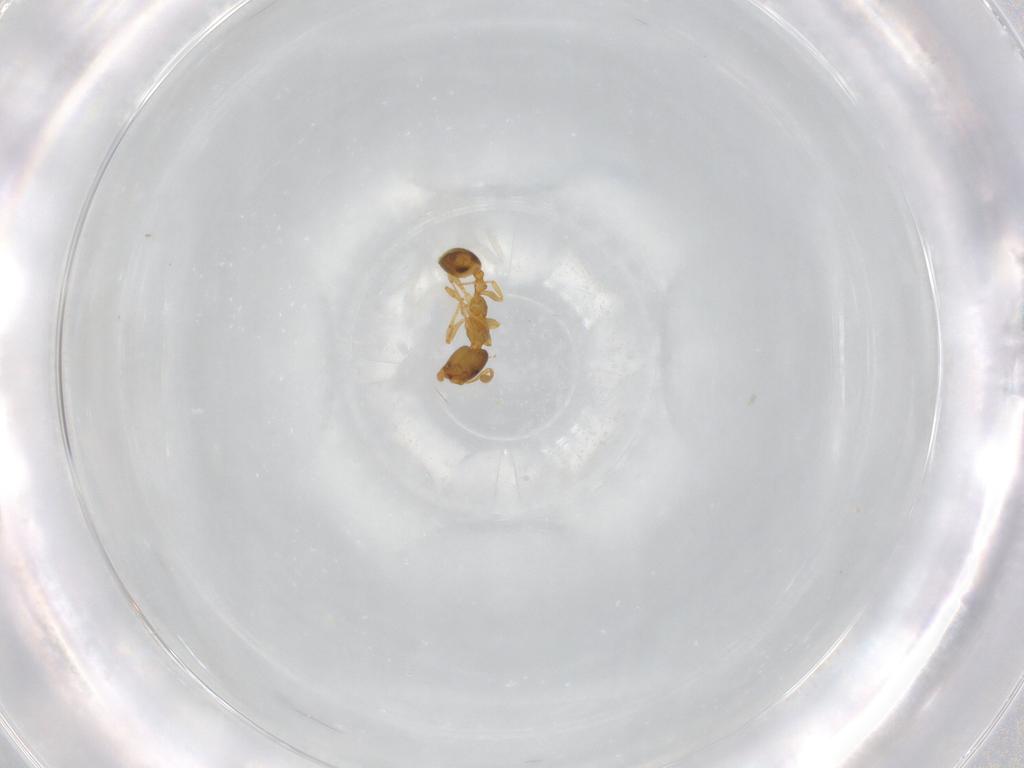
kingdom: Animalia
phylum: Arthropoda
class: Insecta
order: Hymenoptera
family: Formicidae
